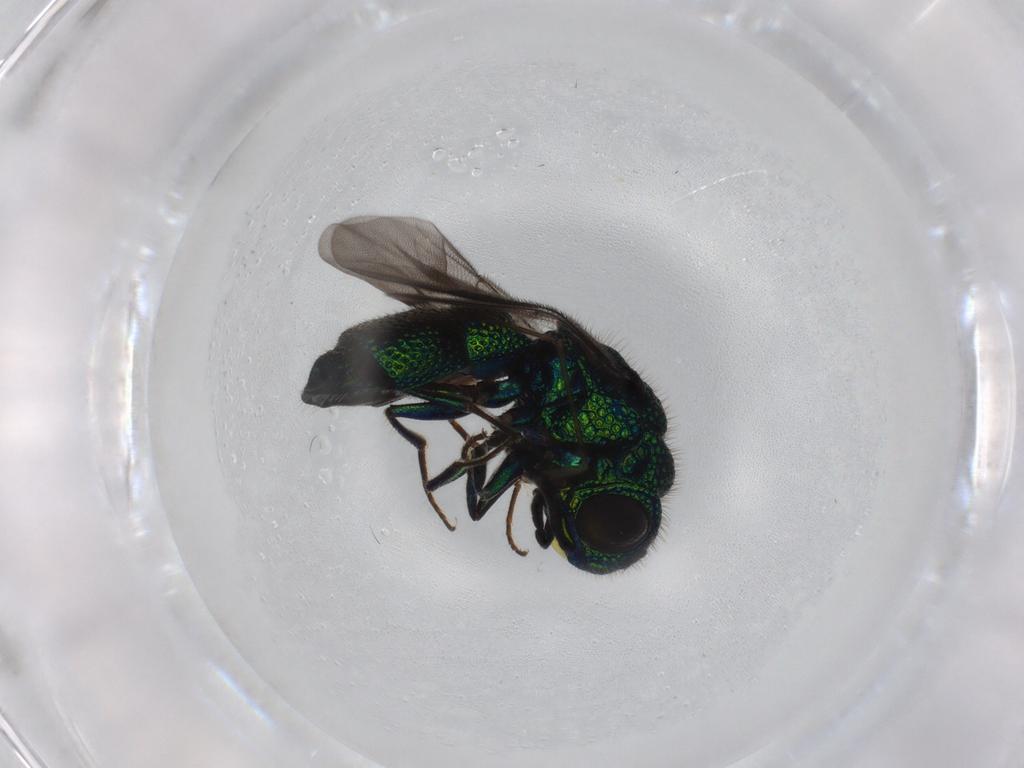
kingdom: Animalia
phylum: Arthropoda
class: Insecta
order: Hymenoptera
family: Chrysididae
